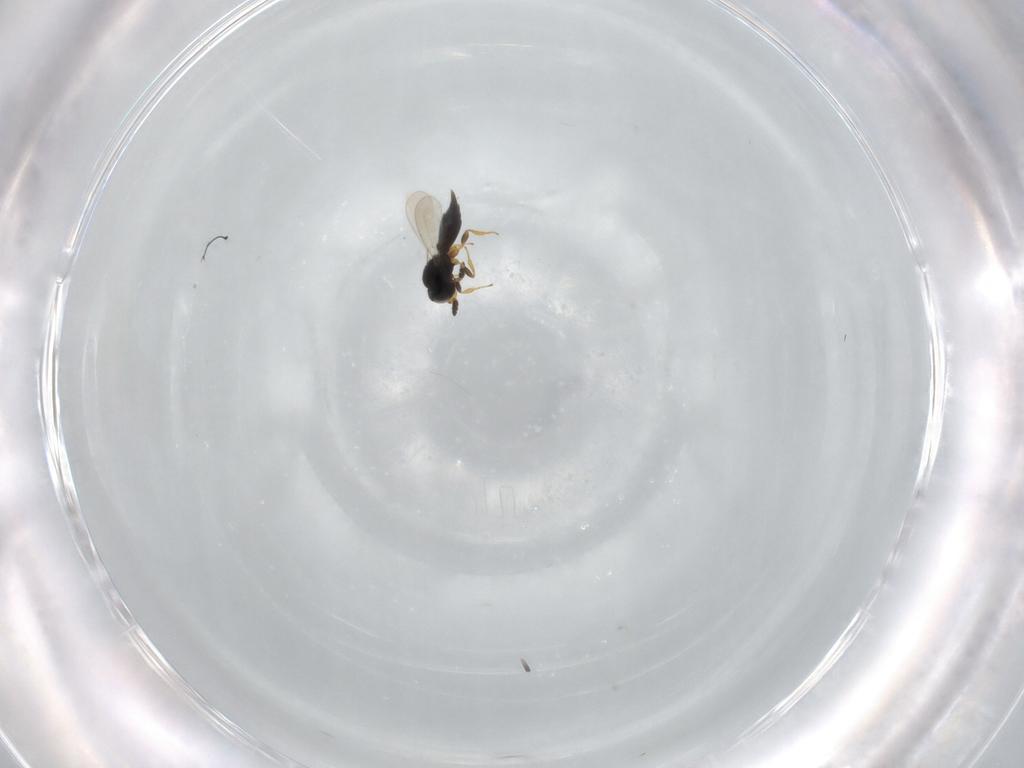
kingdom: Animalia
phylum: Arthropoda
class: Insecta
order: Hymenoptera
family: Platygastridae
